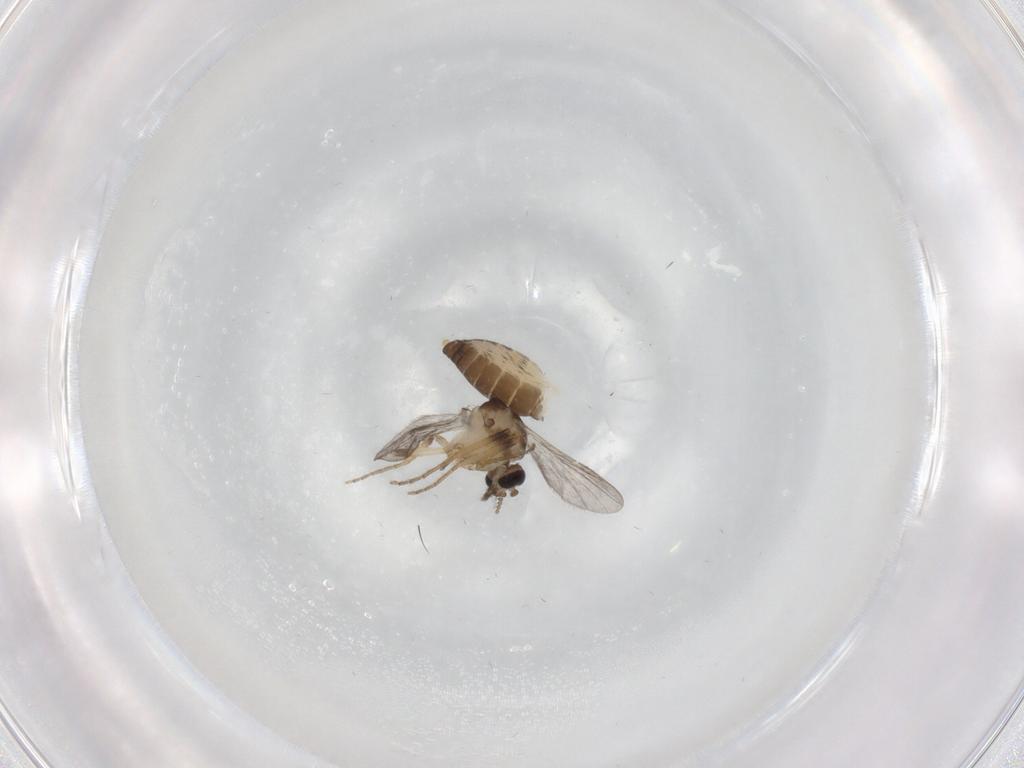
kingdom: Animalia
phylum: Arthropoda
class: Insecta
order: Diptera
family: Ceratopogonidae
